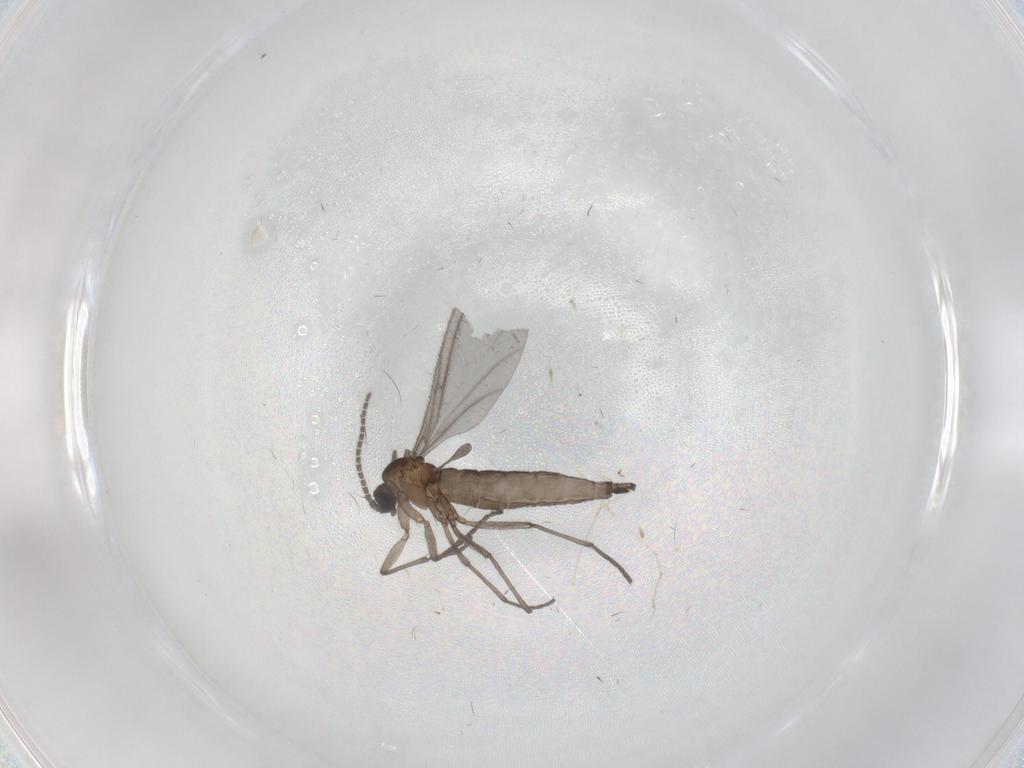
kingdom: Animalia
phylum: Arthropoda
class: Insecta
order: Diptera
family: Sciaridae
